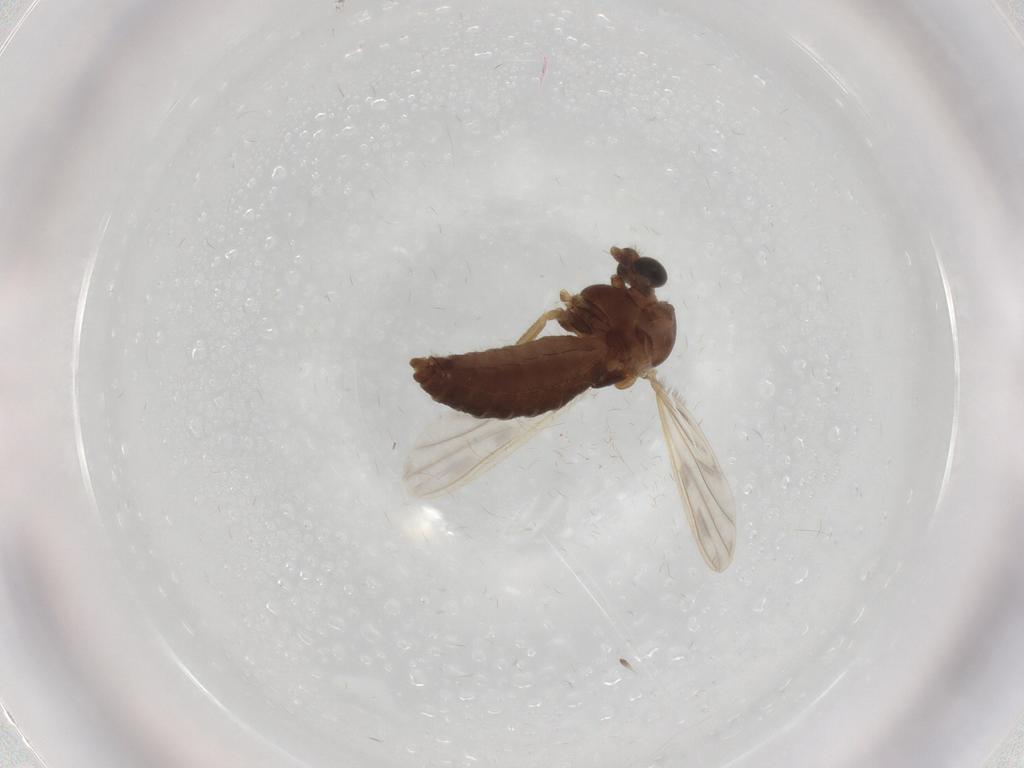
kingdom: Animalia
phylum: Arthropoda
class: Insecta
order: Diptera
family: Chironomidae
